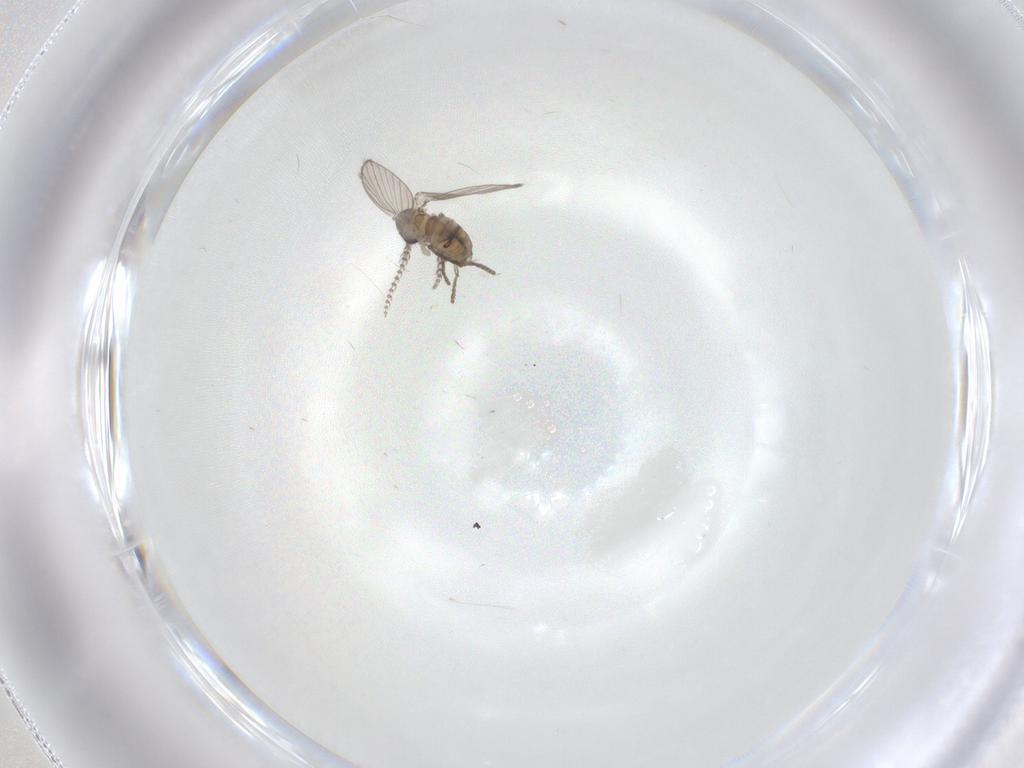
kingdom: Animalia
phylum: Arthropoda
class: Insecta
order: Diptera
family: Psychodidae
